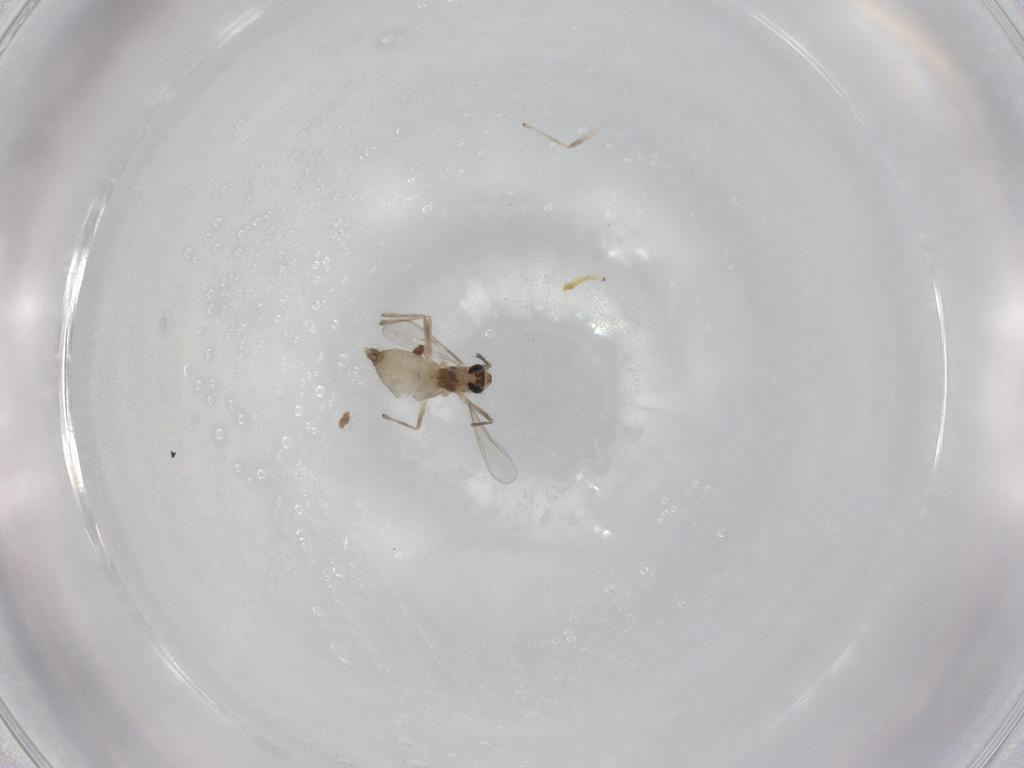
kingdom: Animalia
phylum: Arthropoda
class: Insecta
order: Diptera
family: Chironomidae
